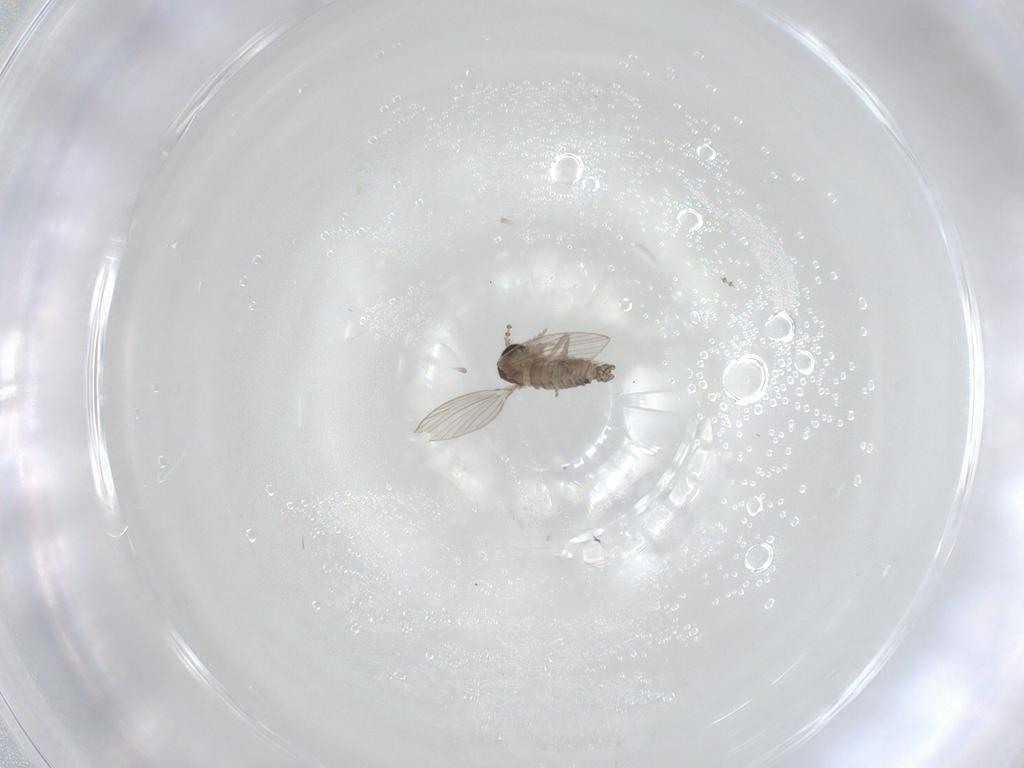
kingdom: Animalia
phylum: Arthropoda
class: Insecta
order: Diptera
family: Psychodidae
